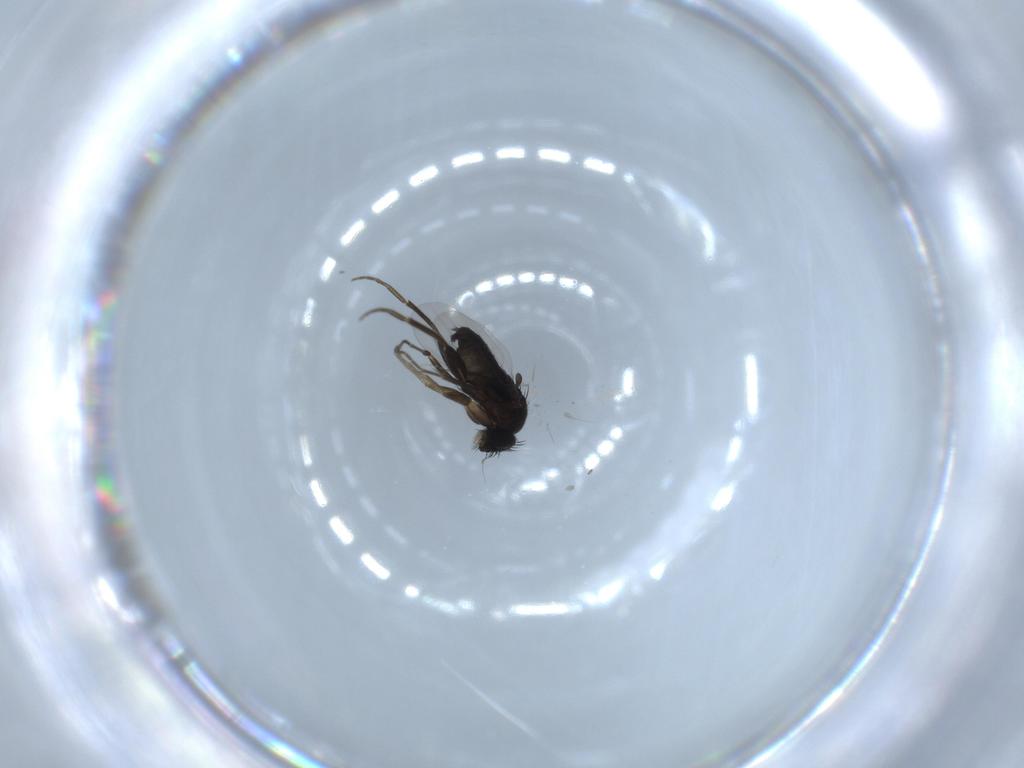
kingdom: Animalia
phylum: Arthropoda
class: Insecta
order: Diptera
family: Phoridae
